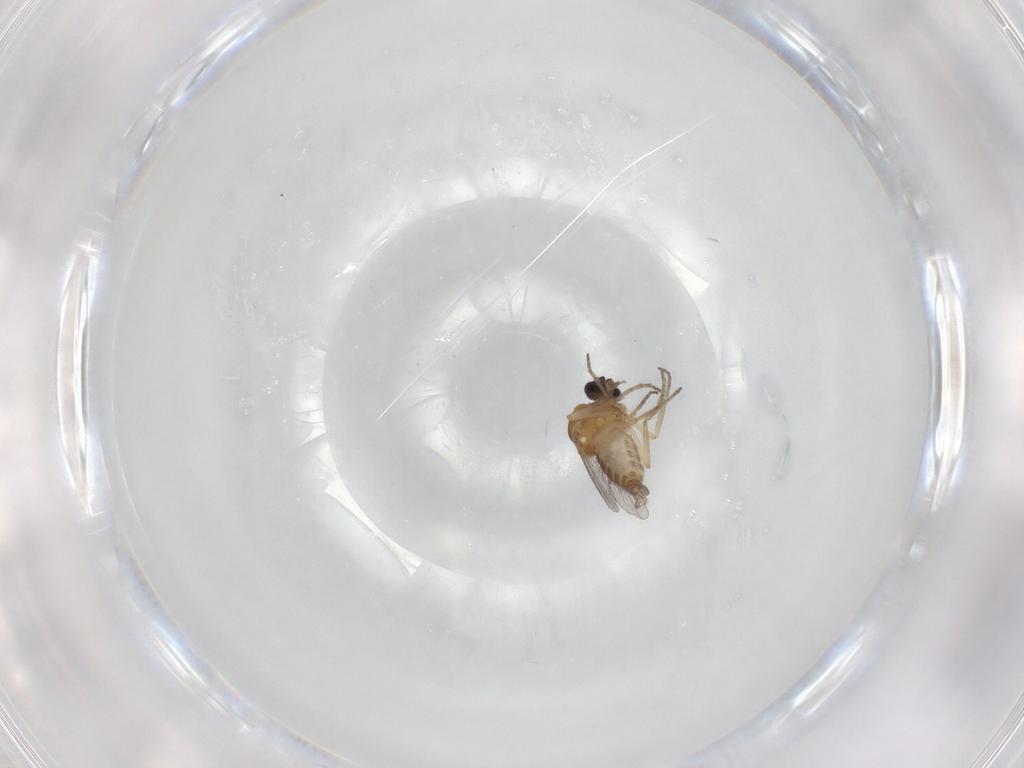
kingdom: Animalia
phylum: Arthropoda
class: Insecta
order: Diptera
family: Ceratopogonidae
